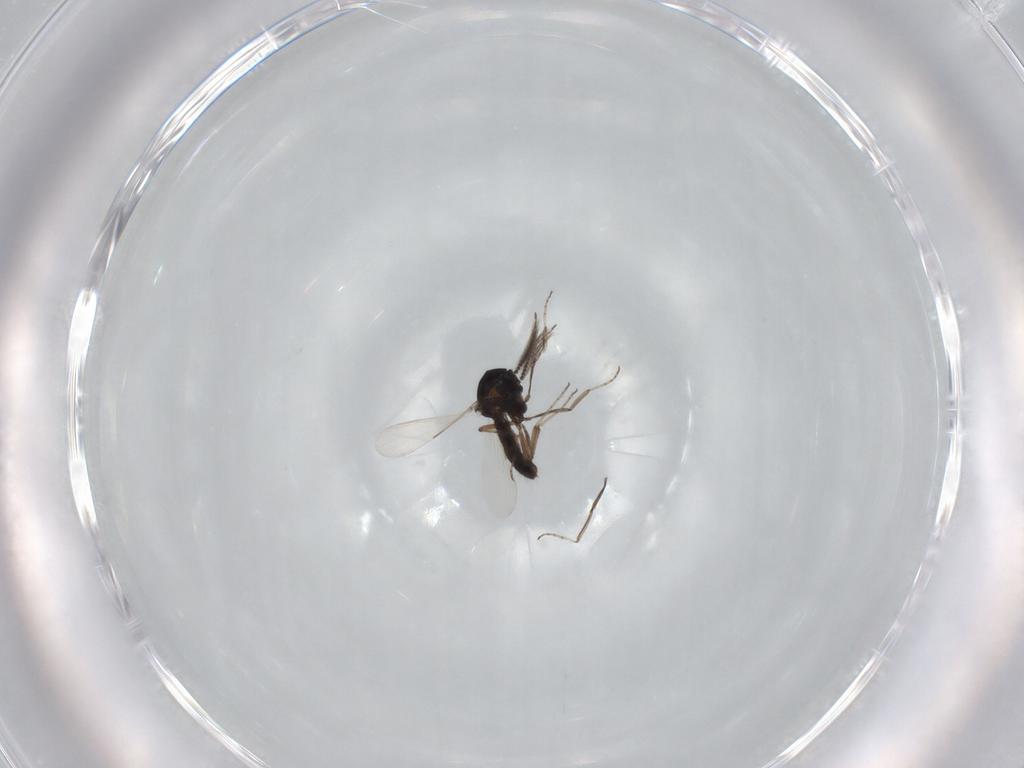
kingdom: Animalia
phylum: Arthropoda
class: Insecta
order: Diptera
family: Ceratopogonidae
